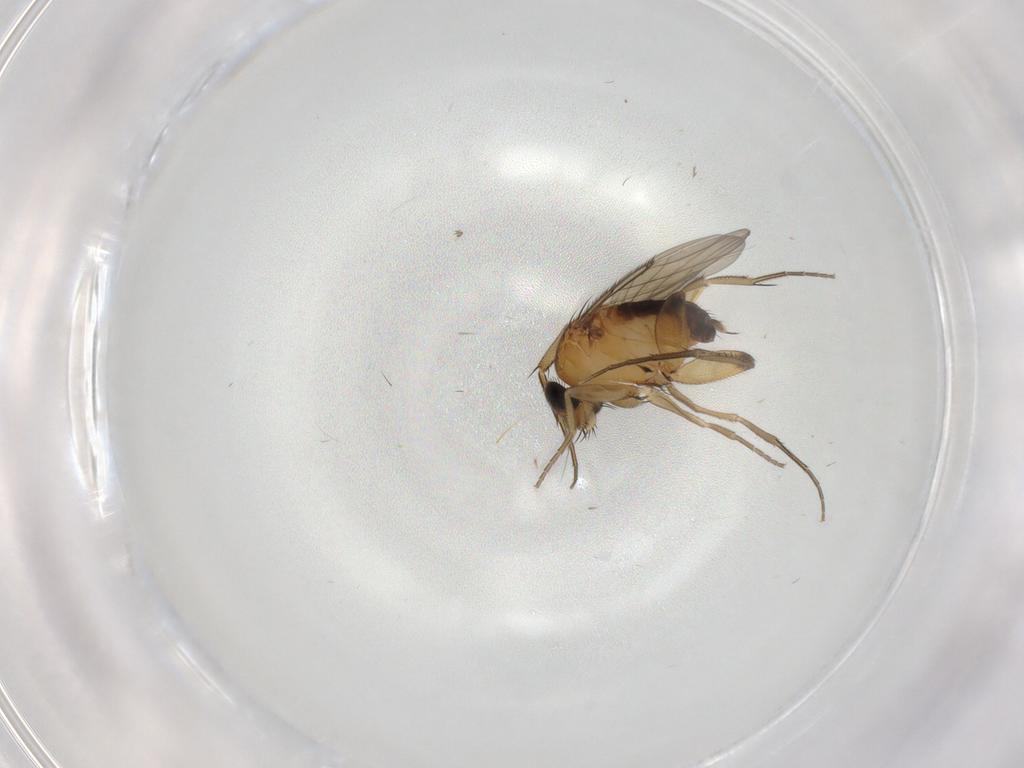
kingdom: Animalia
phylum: Arthropoda
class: Insecta
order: Diptera
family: Phoridae
